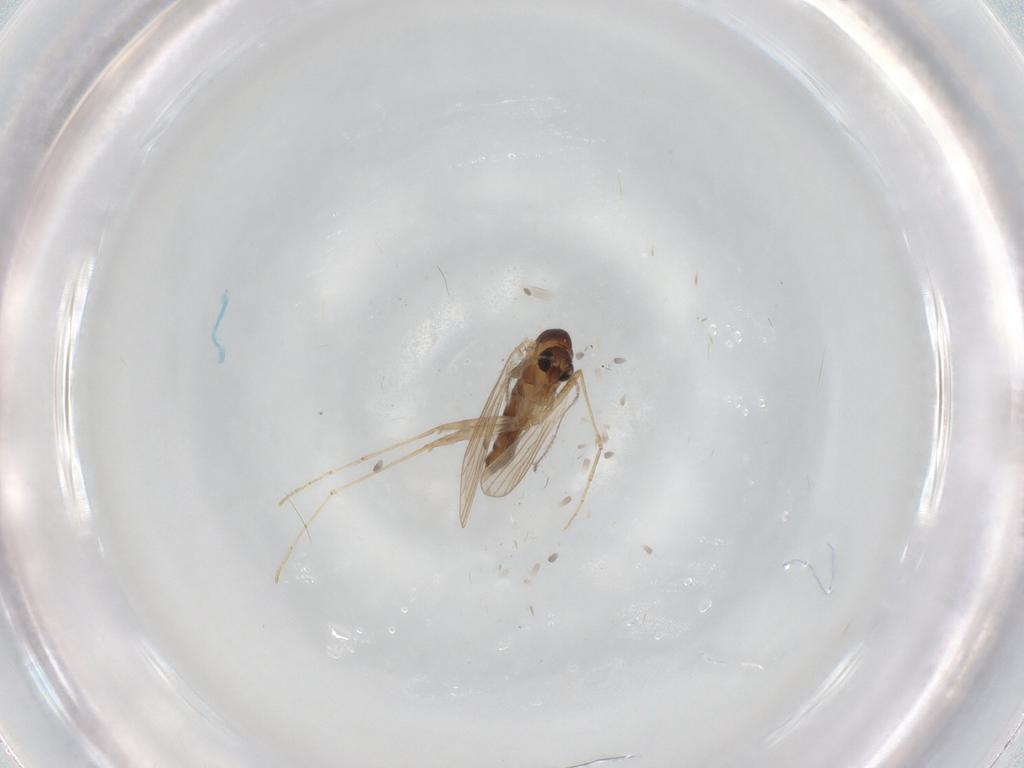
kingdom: Animalia
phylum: Arthropoda
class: Insecta
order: Diptera
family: Psychodidae
